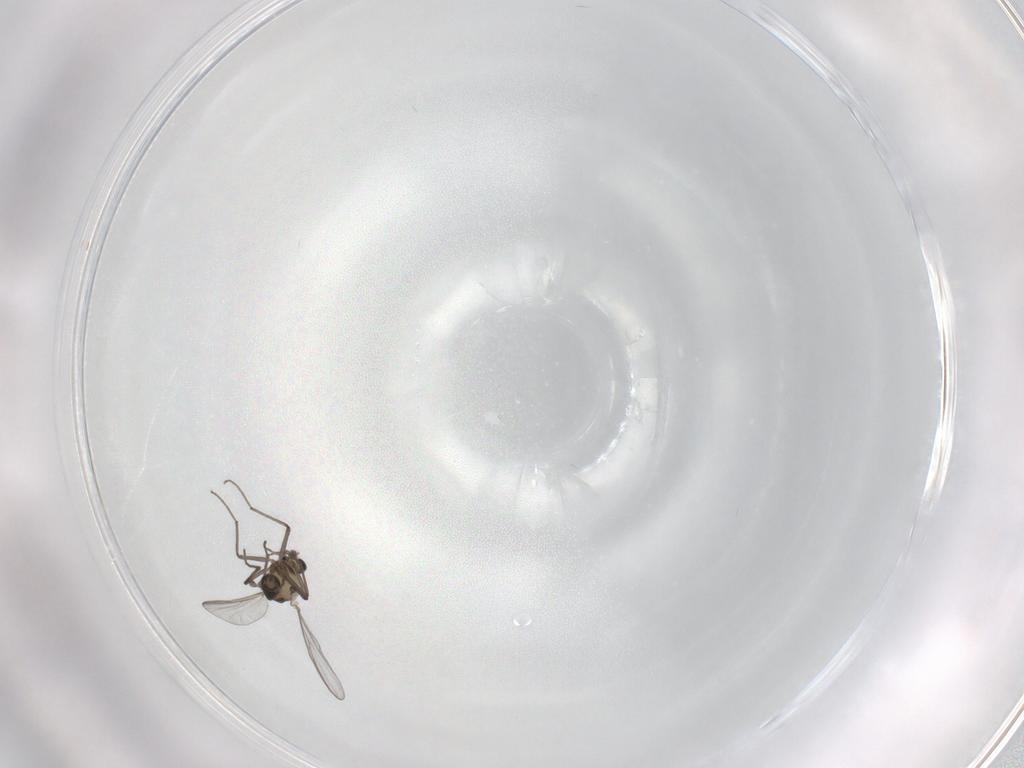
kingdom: Animalia
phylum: Arthropoda
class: Insecta
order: Diptera
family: Chironomidae
